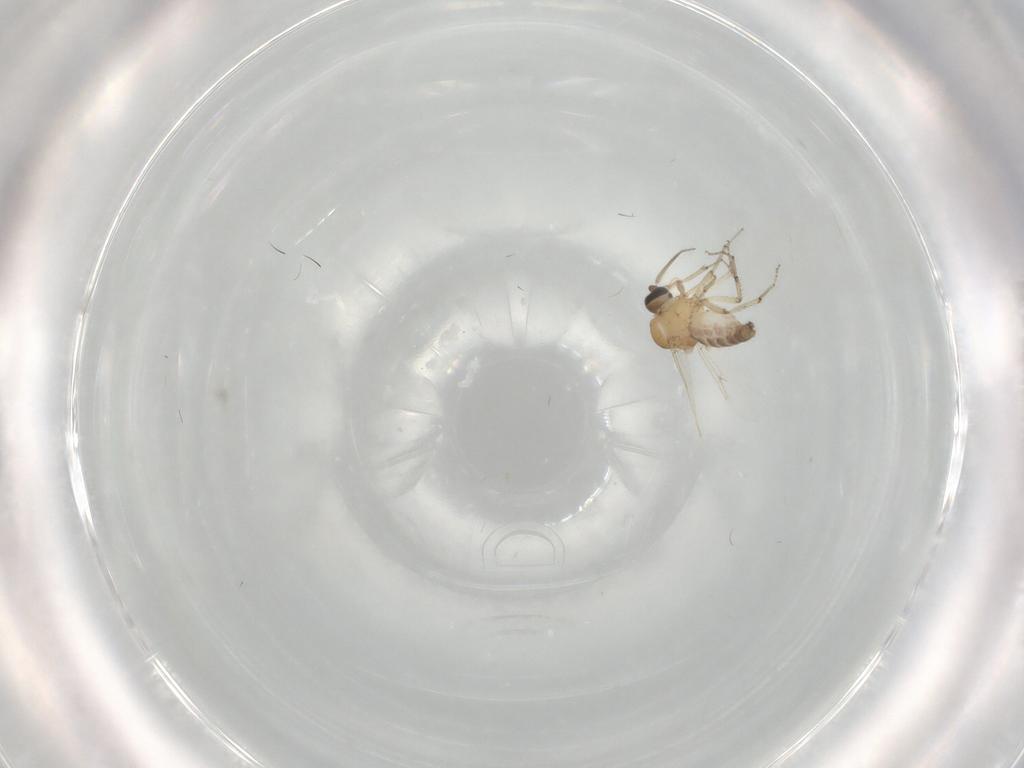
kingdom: Animalia
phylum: Arthropoda
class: Insecta
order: Diptera
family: Ceratopogonidae
